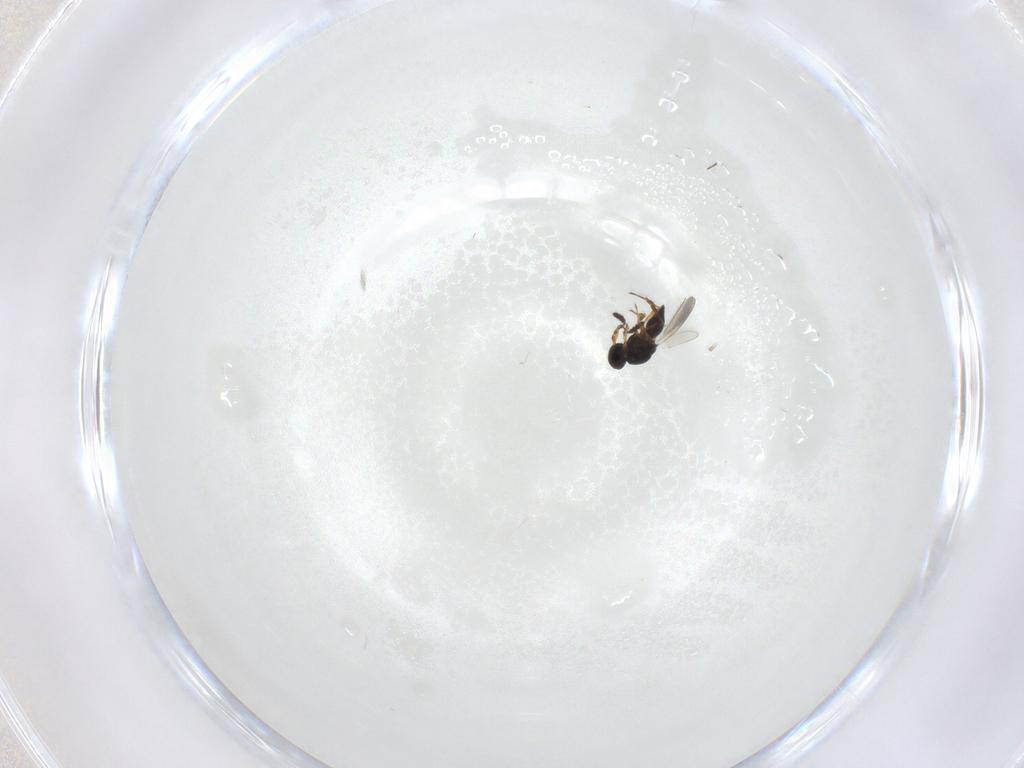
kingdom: Animalia
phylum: Arthropoda
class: Insecta
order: Hymenoptera
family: Platygastridae
